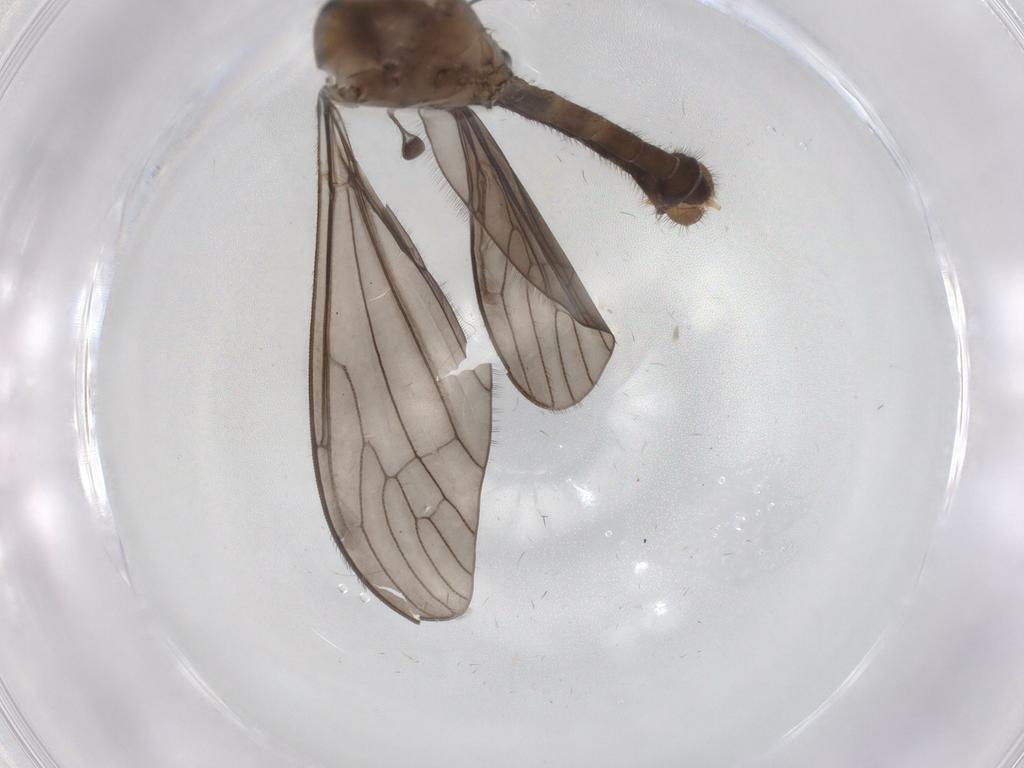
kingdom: Animalia
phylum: Arthropoda
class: Insecta
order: Diptera
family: Limoniidae
